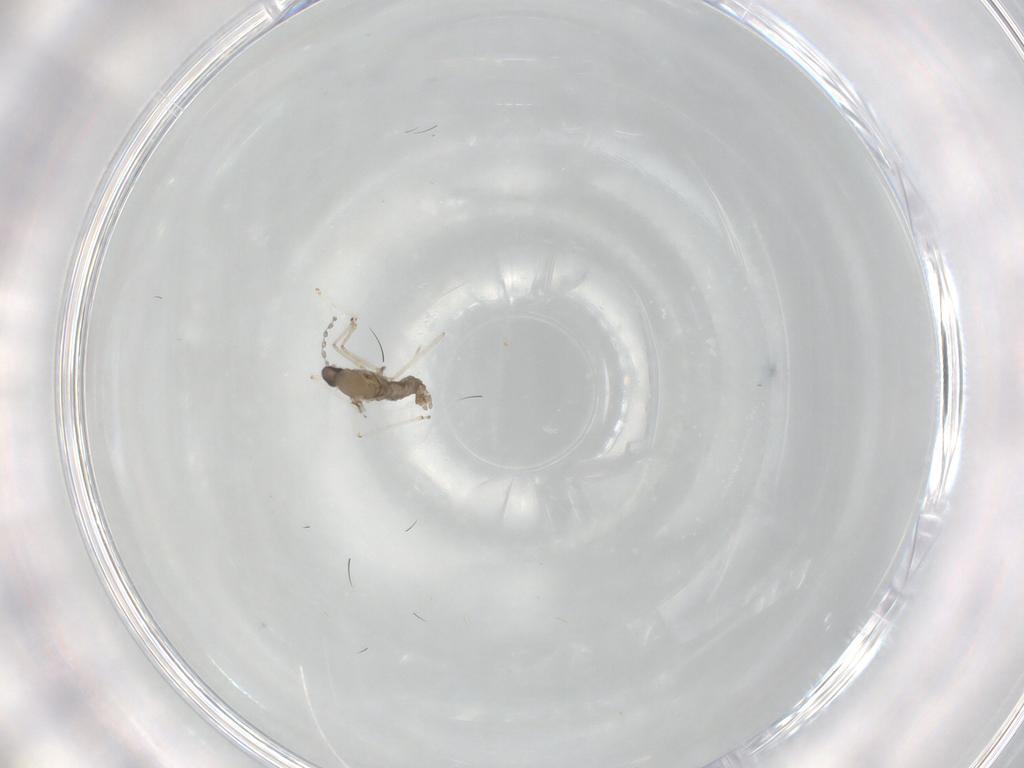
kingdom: Animalia
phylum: Arthropoda
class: Insecta
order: Diptera
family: Cecidomyiidae
